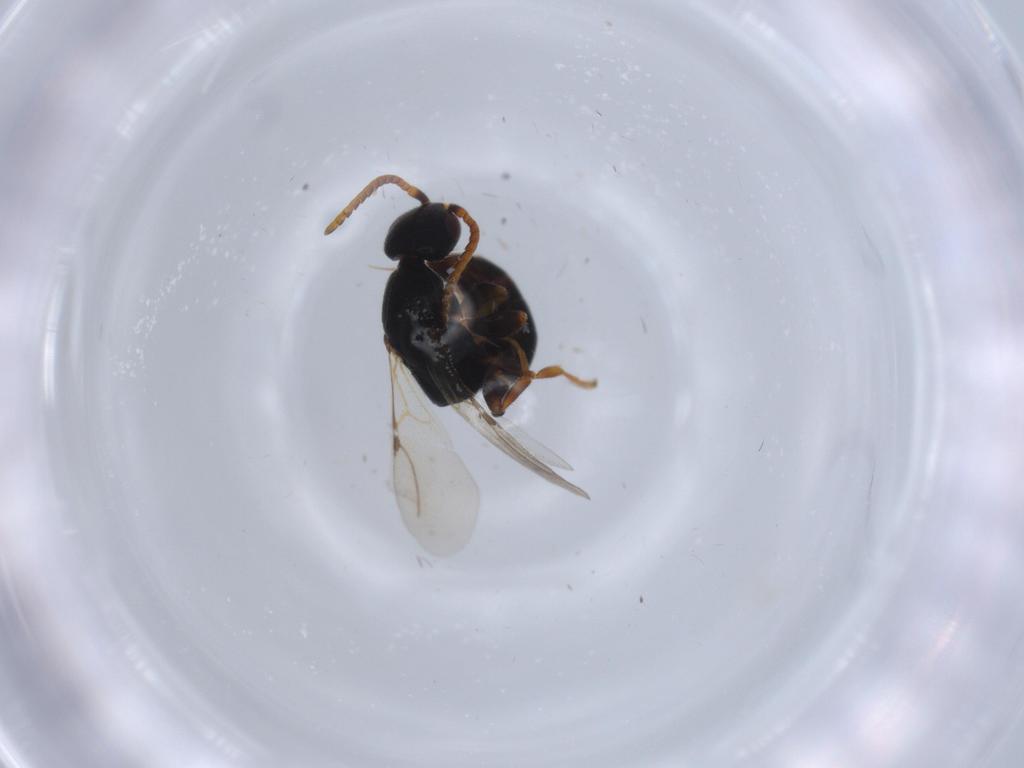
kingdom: Animalia
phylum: Arthropoda
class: Insecta
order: Hymenoptera
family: Bethylidae
